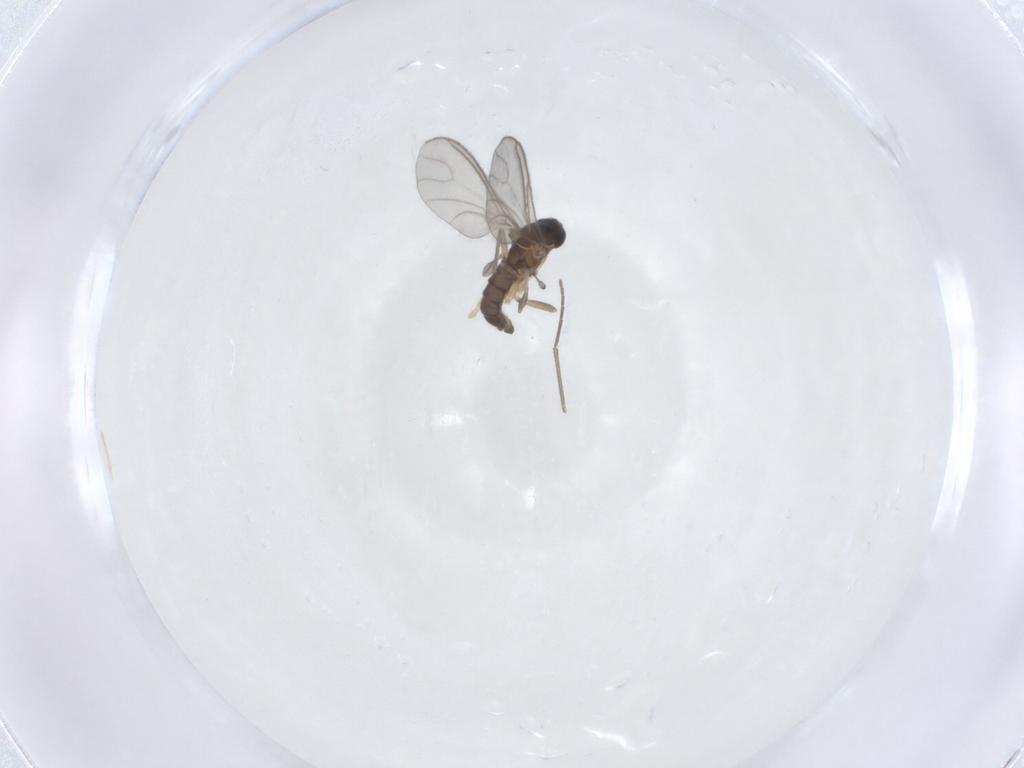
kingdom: Animalia
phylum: Arthropoda
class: Insecta
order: Diptera
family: Sciaridae
